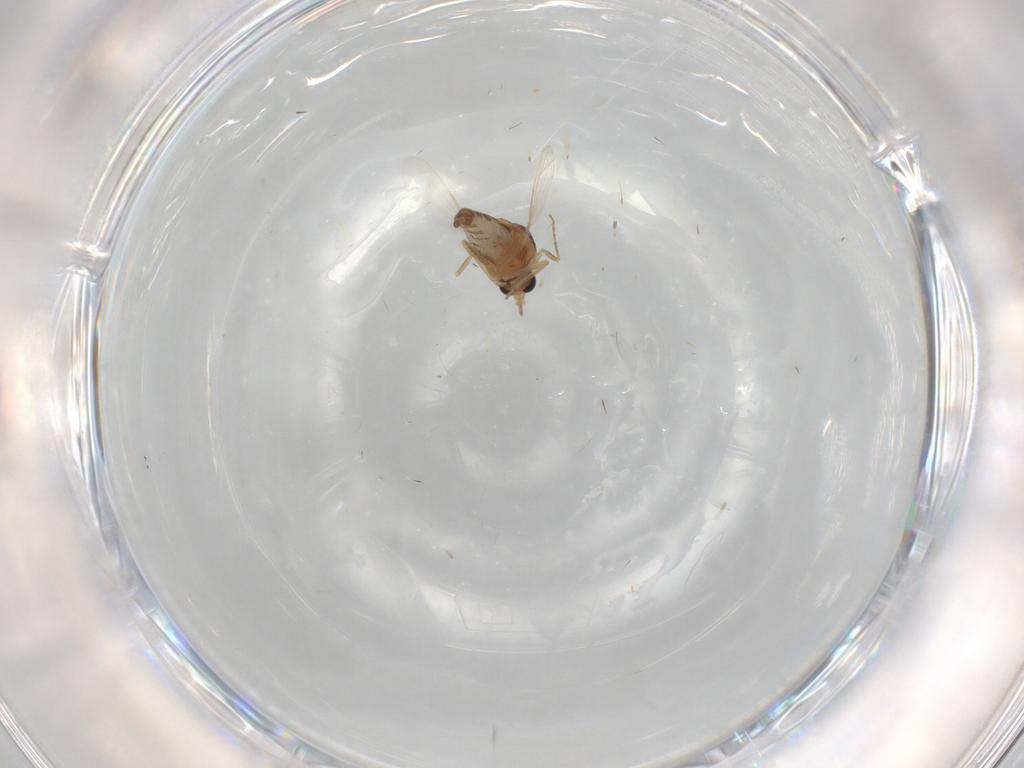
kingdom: Animalia
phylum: Arthropoda
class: Insecta
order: Diptera
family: Ceratopogonidae
